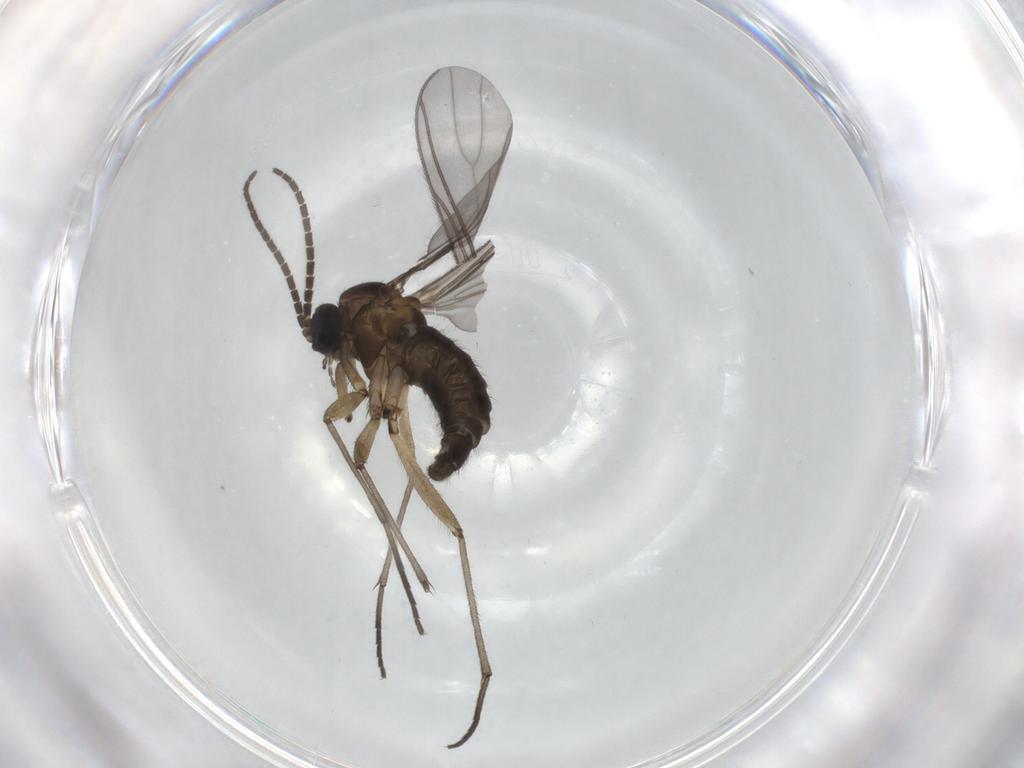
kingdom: Animalia
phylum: Arthropoda
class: Insecta
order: Diptera
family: Sciaridae
